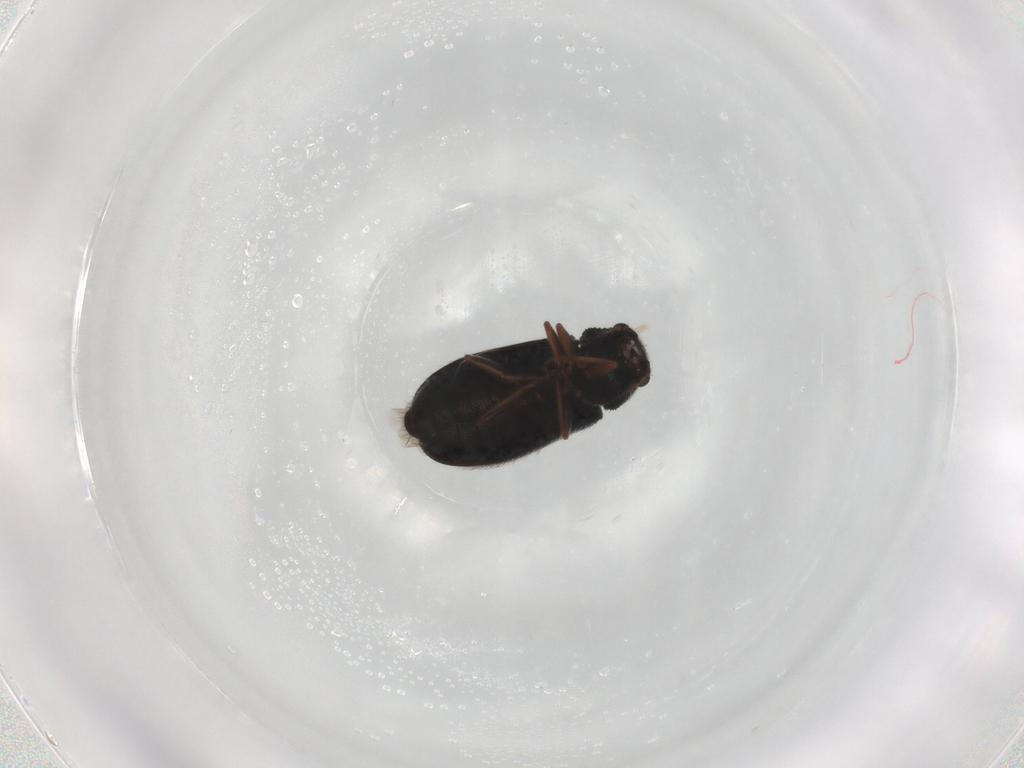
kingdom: Animalia
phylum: Arthropoda
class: Insecta
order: Coleoptera
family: Melyridae
